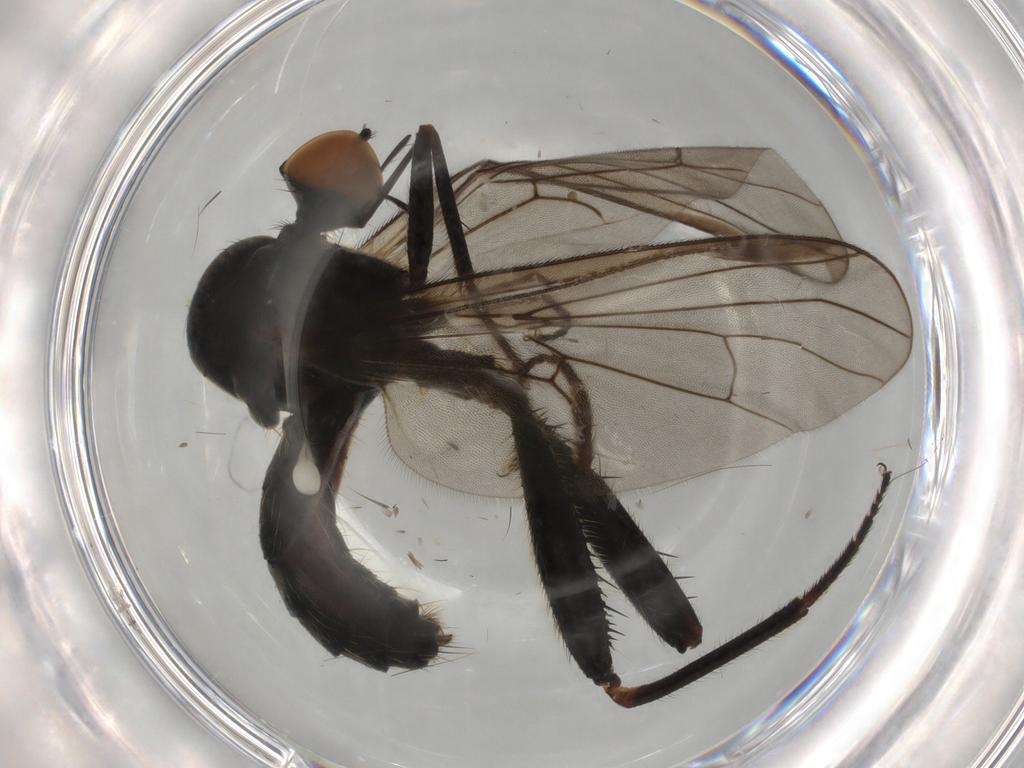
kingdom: Animalia
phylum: Arthropoda
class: Insecta
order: Diptera
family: Hybotidae
